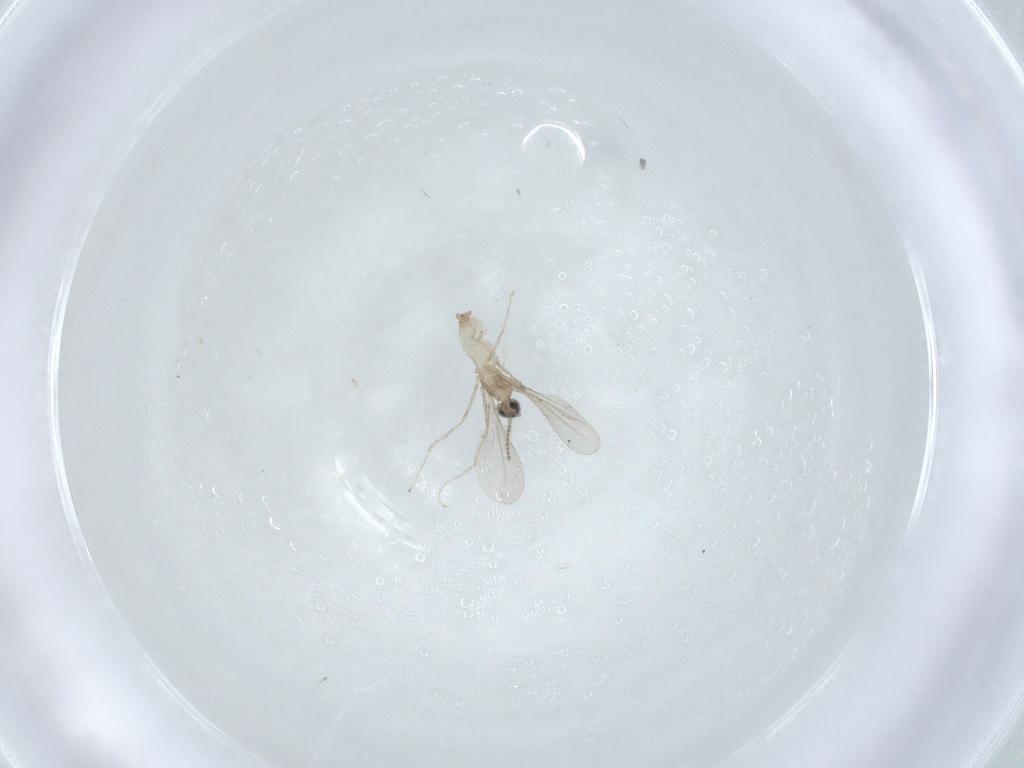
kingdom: Animalia
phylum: Arthropoda
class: Insecta
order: Diptera
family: Cecidomyiidae
